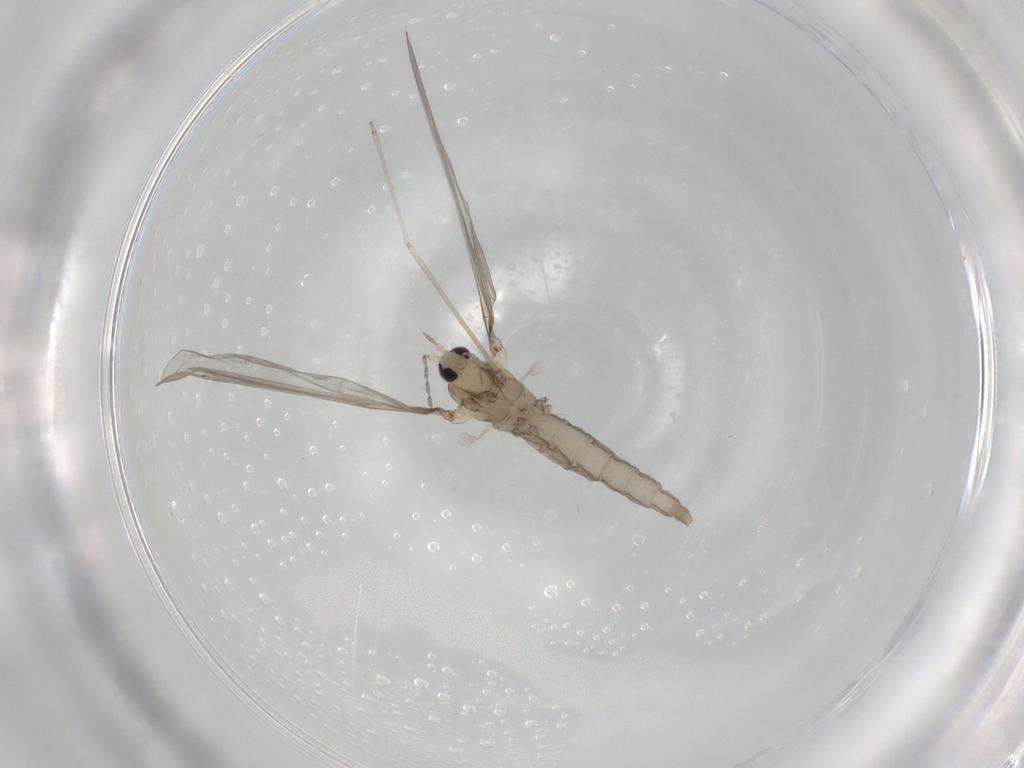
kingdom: Animalia
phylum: Arthropoda
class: Insecta
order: Diptera
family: Cecidomyiidae
